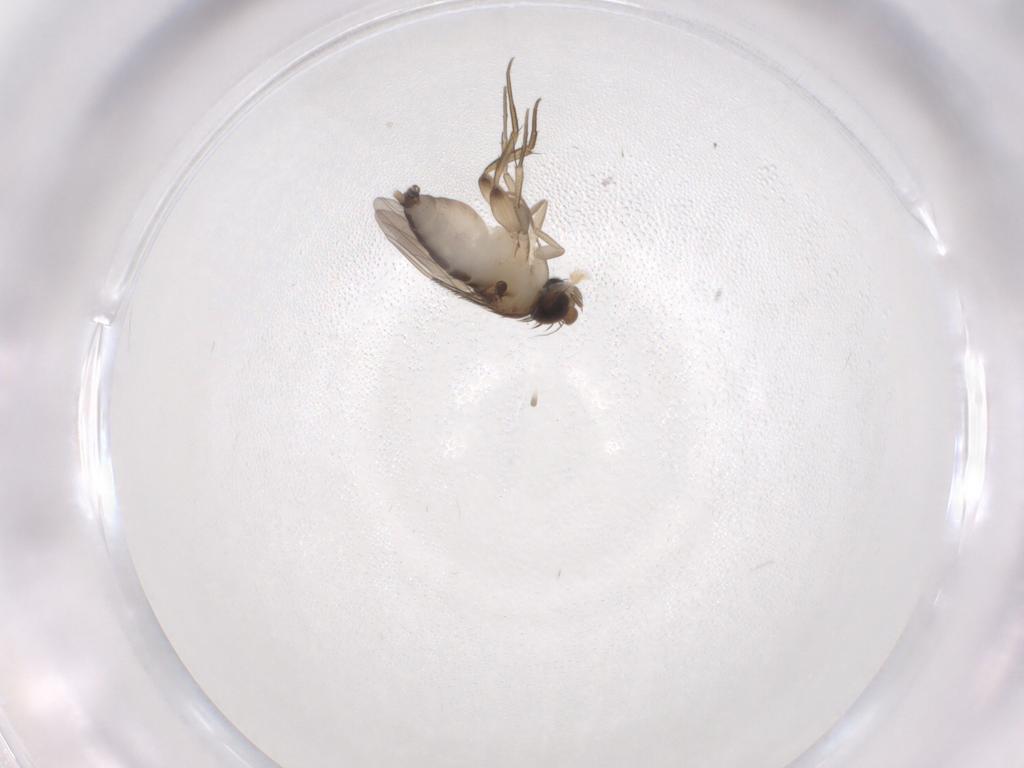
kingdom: Animalia
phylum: Arthropoda
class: Insecta
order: Diptera
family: Phoridae
